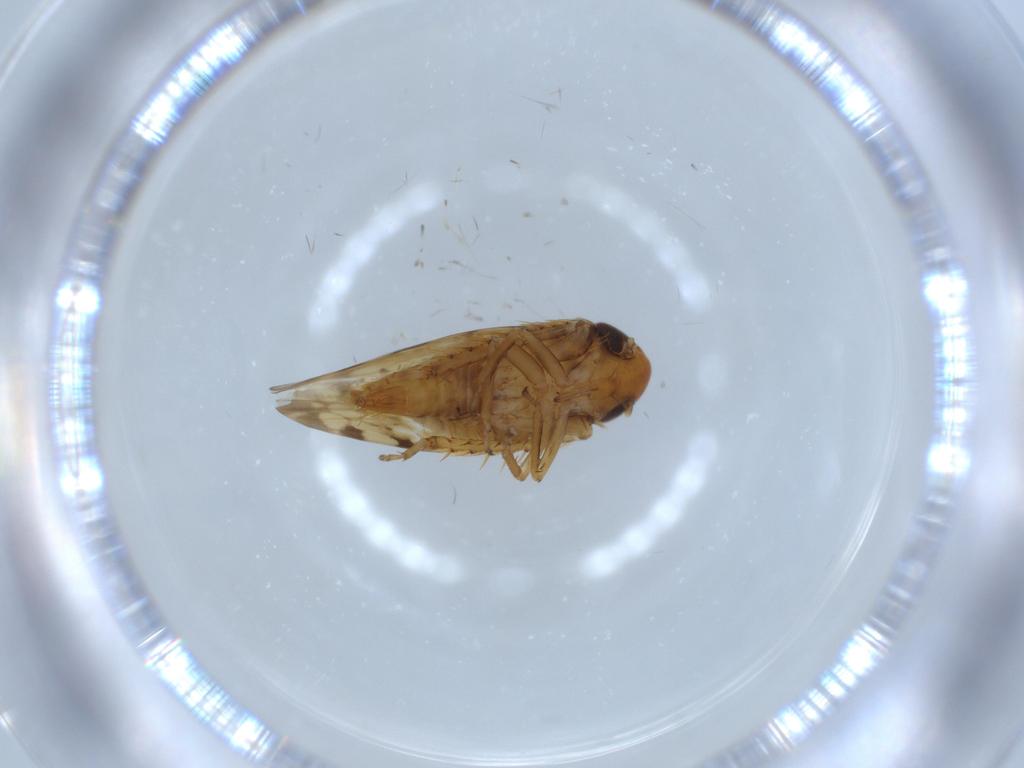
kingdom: Animalia
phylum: Arthropoda
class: Insecta
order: Hemiptera
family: Cicadellidae
